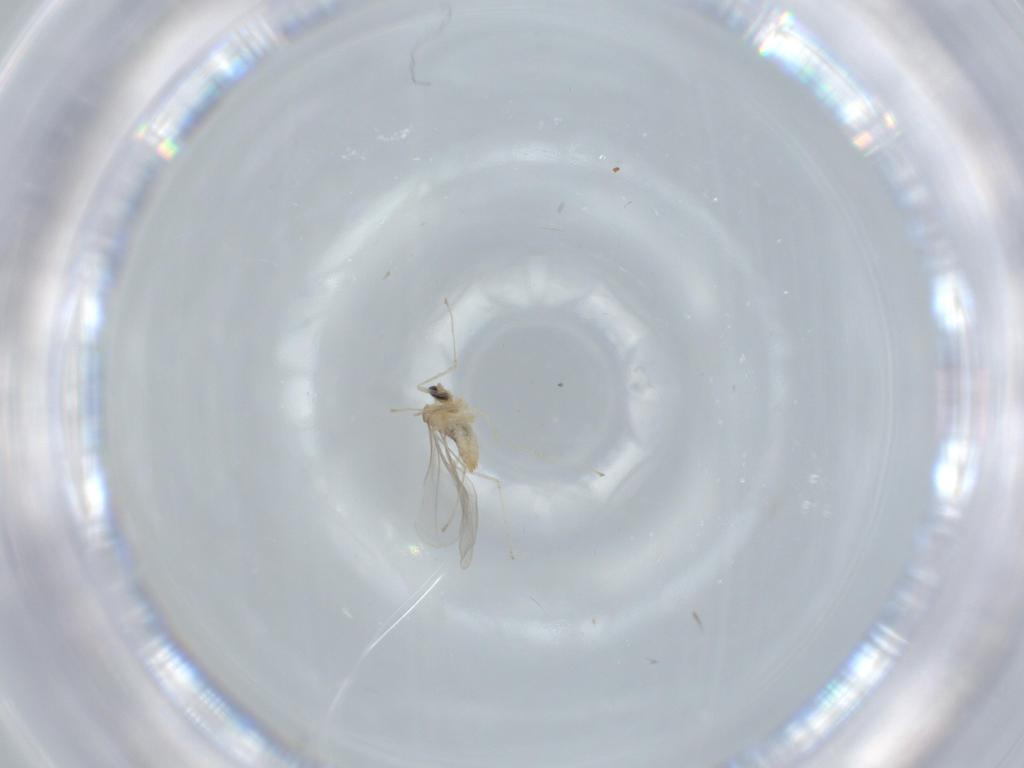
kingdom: Animalia
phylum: Arthropoda
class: Insecta
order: Diptera
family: Cecidomyiidae
